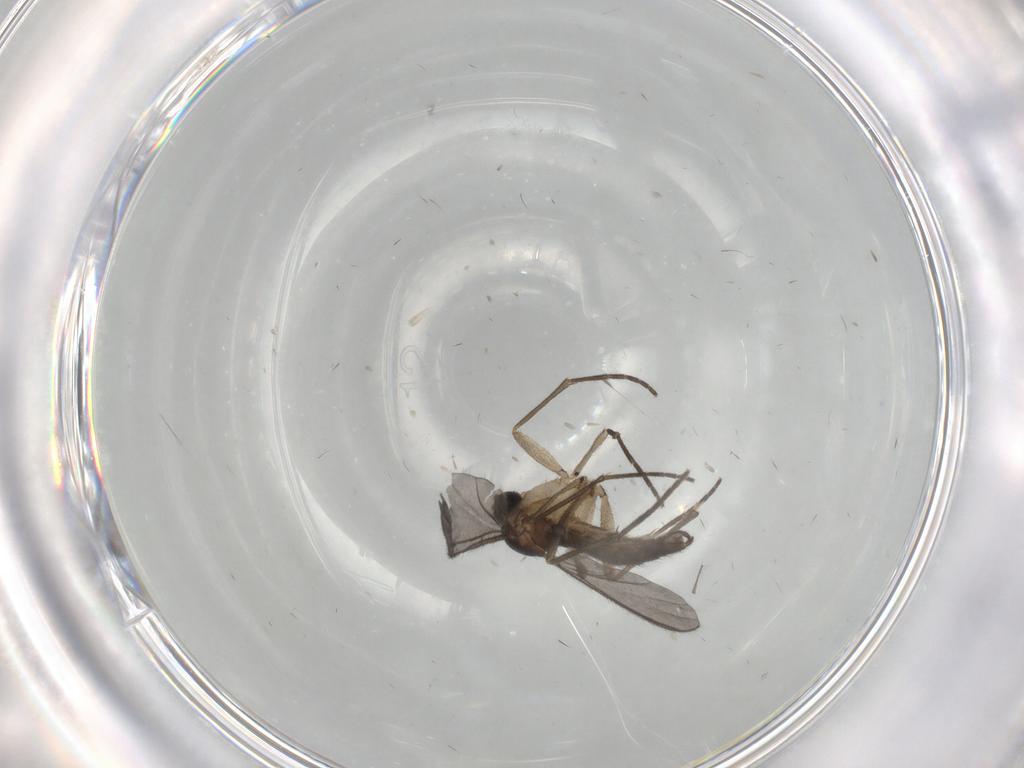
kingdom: Animalia
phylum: Arthropoda
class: Insecta
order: Diptera
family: Sciaridae
